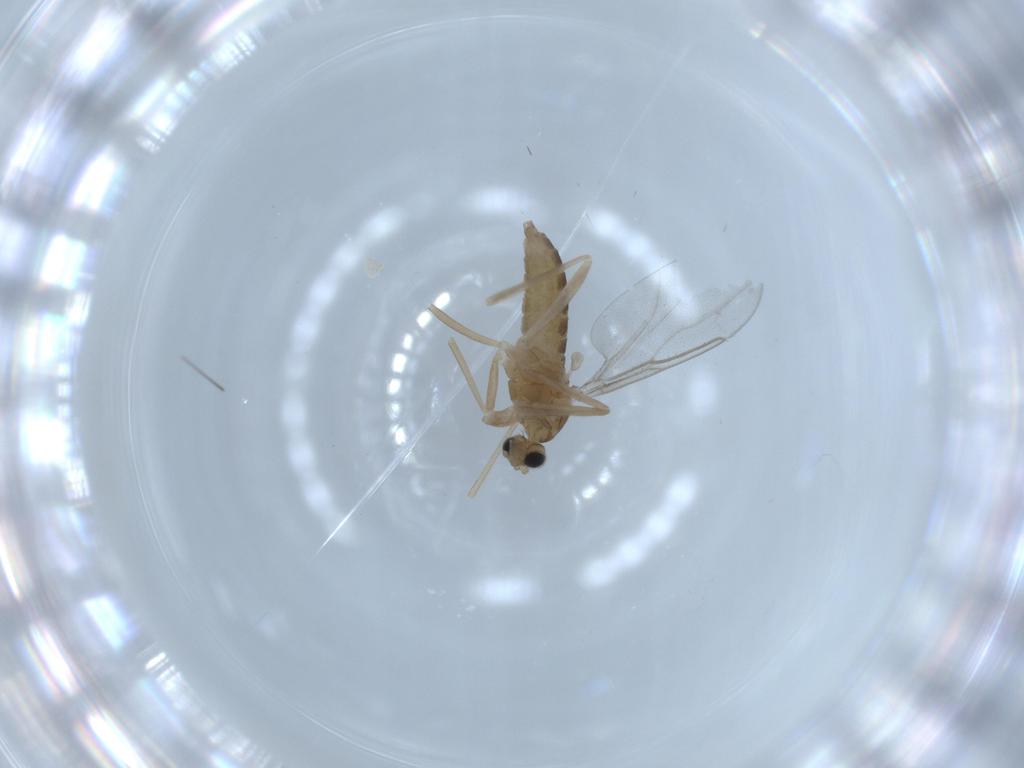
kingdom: Animalia
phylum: Arthropoda
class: Insecta
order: Diptera
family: Cecidomyiidae
